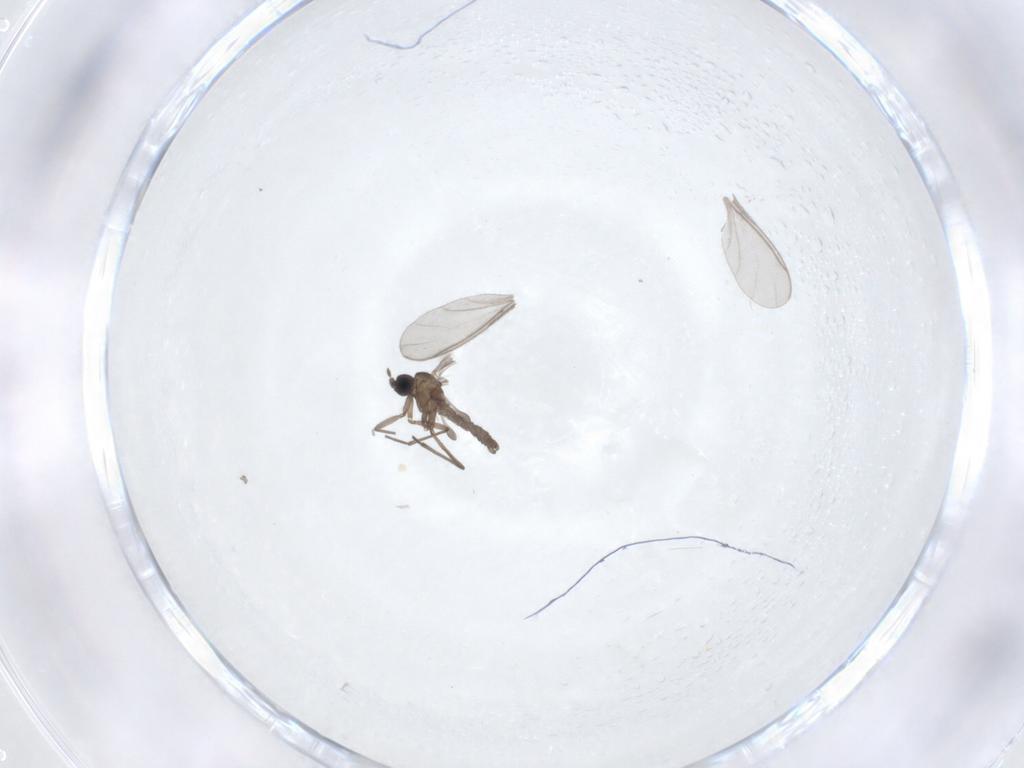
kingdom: Animalia
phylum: Arthropoda
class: Insecta
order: Diptera
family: Sciaridae
